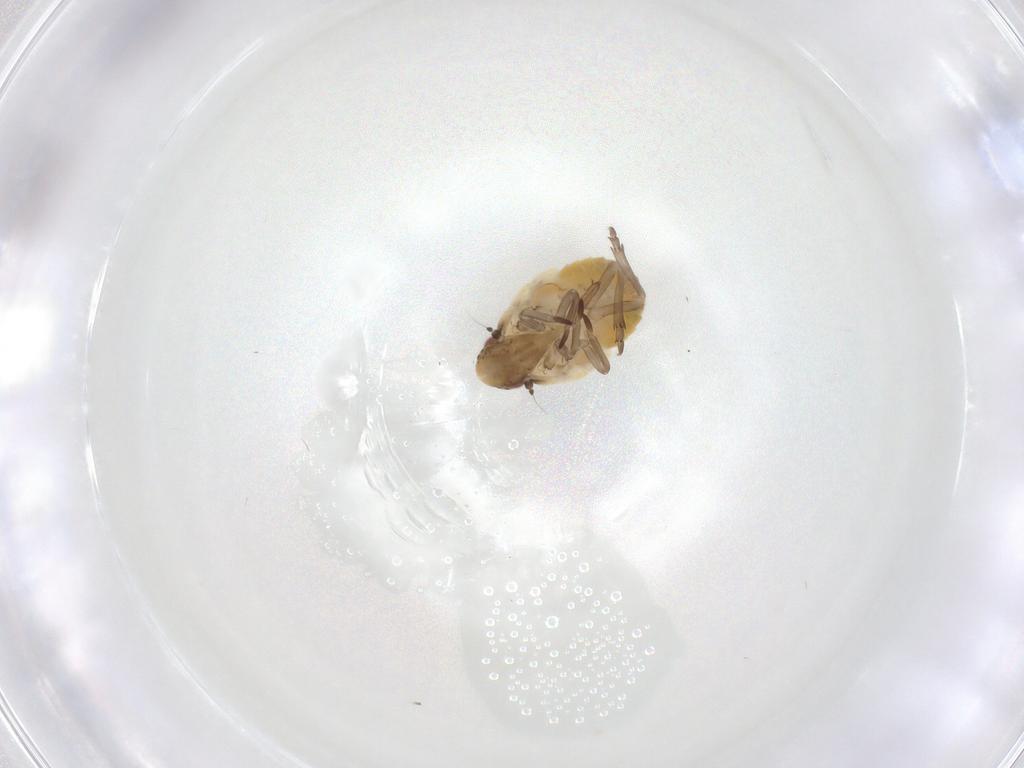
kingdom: Animalia
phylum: Arthropoda
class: Insecta
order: Hemiptera
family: Flatidae
